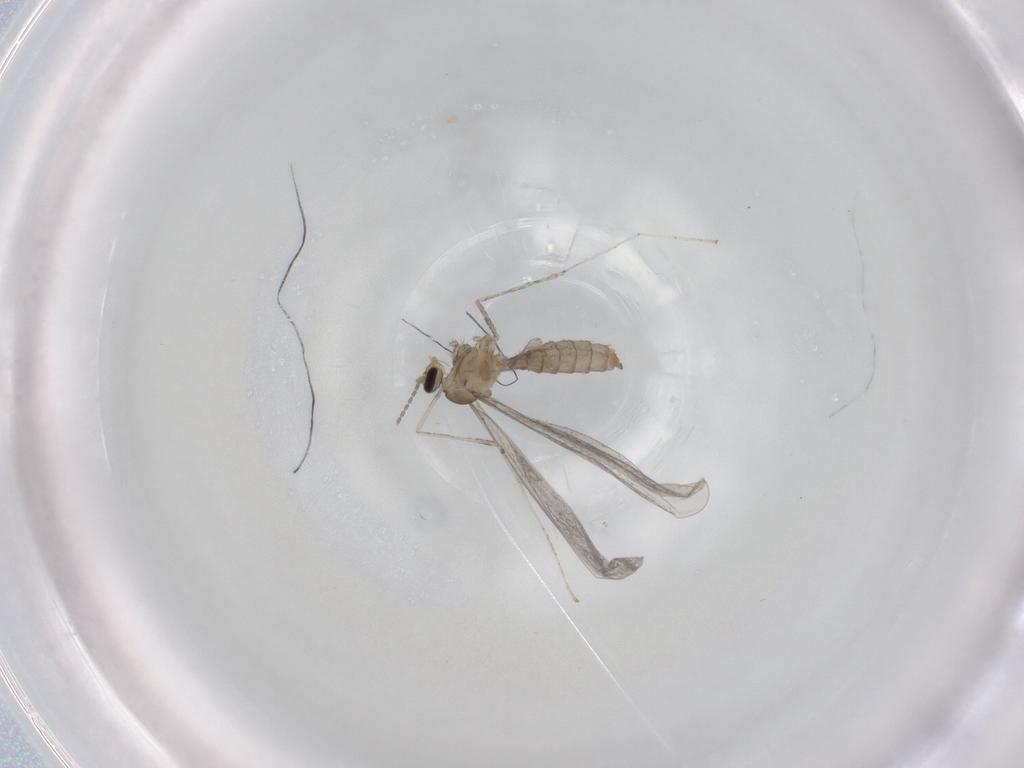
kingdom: Animalia
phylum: Arthropoda
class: Insecta
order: Diptera
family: Cecidomyiidae
